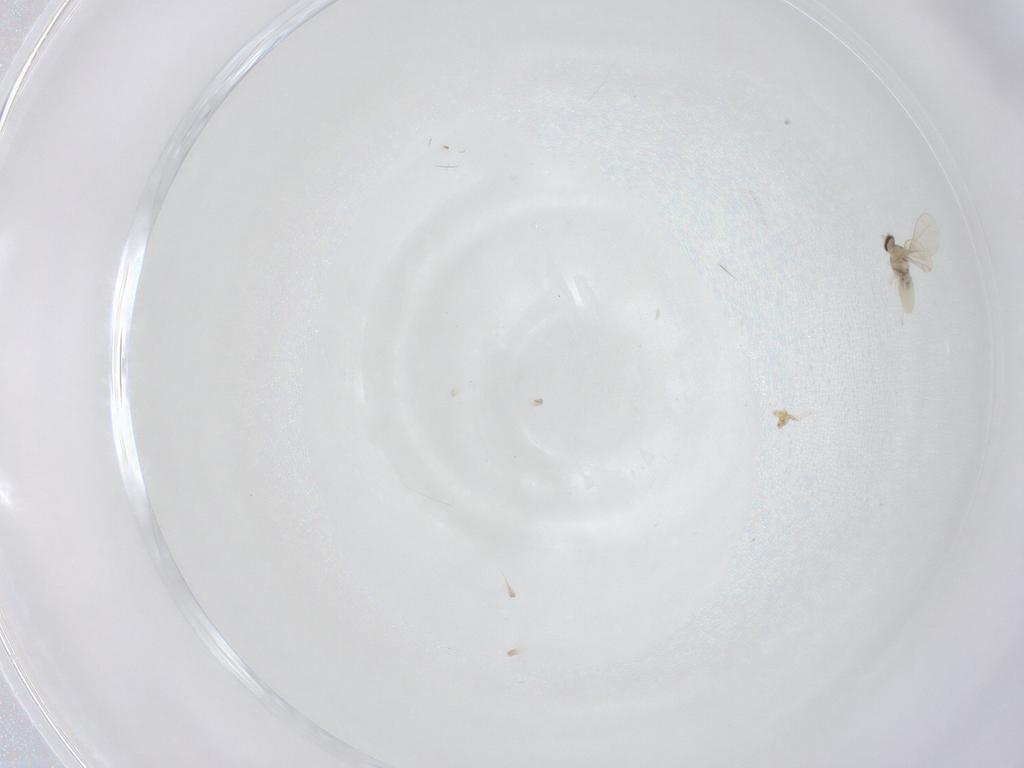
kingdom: Animalia
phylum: Arthropoda
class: Insecta
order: Diptera
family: Cecidomyiidae
